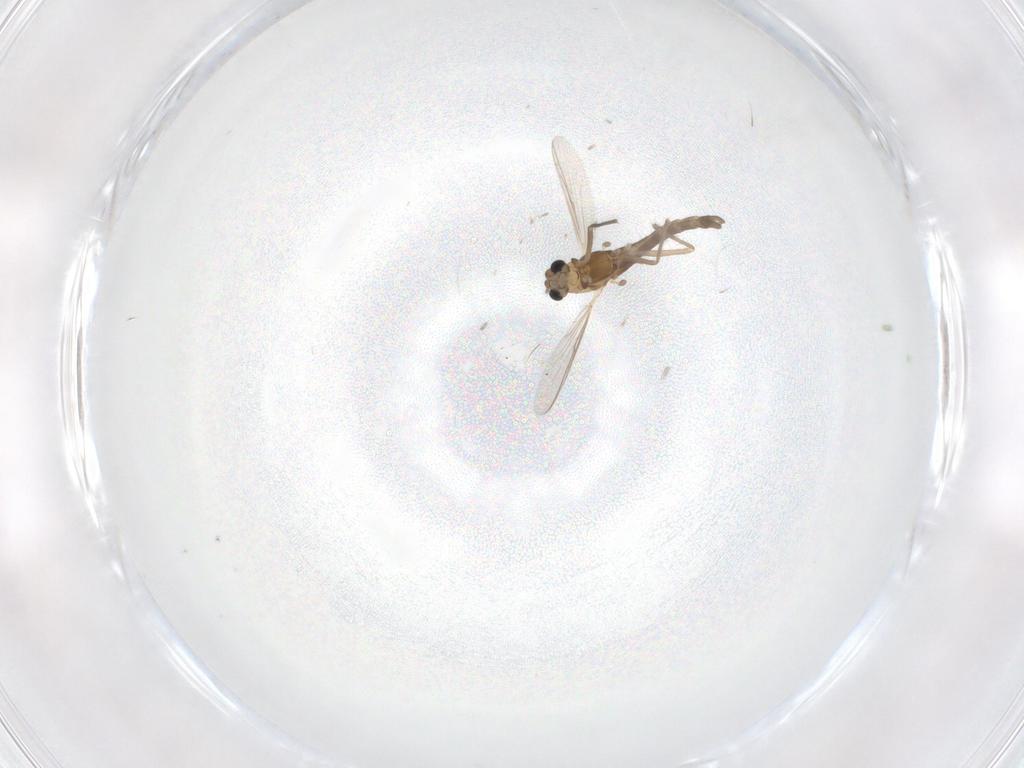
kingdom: Animalia
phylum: Arthropoda
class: Insecta
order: Diptera
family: Chironomidae
